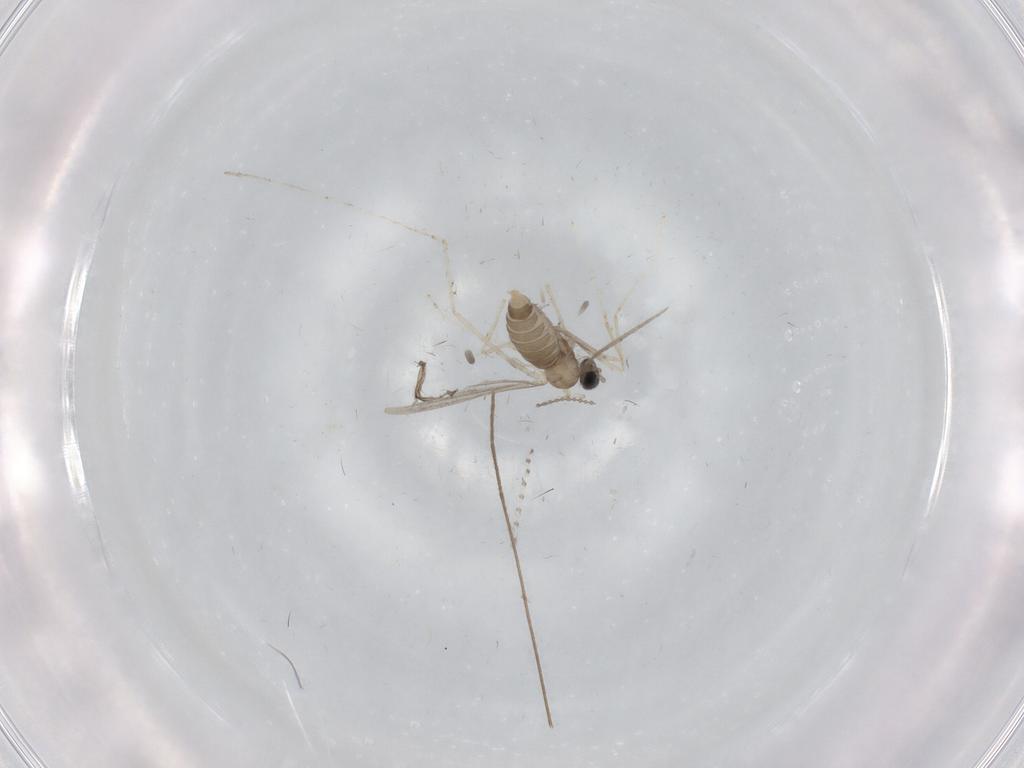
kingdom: Animalia
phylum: Arthropoda
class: Insecta
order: Diptera
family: Cecidomyiidae
